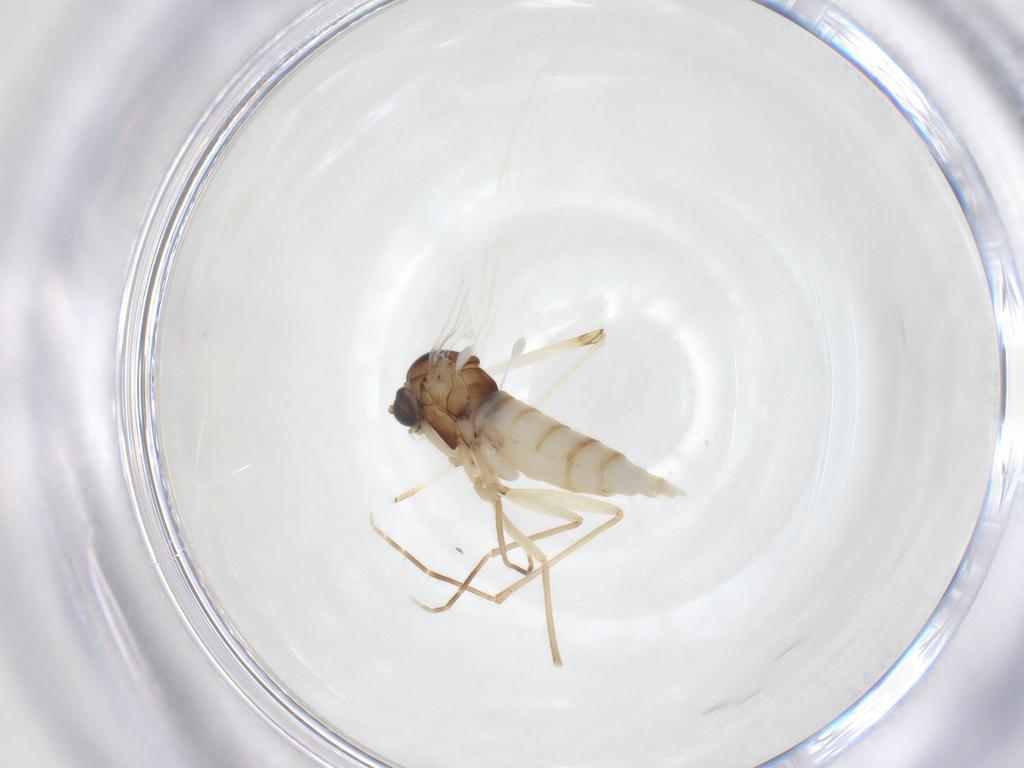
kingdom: Animalia
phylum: Arthropoda
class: Insecta
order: Diptera
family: Sciaridae
